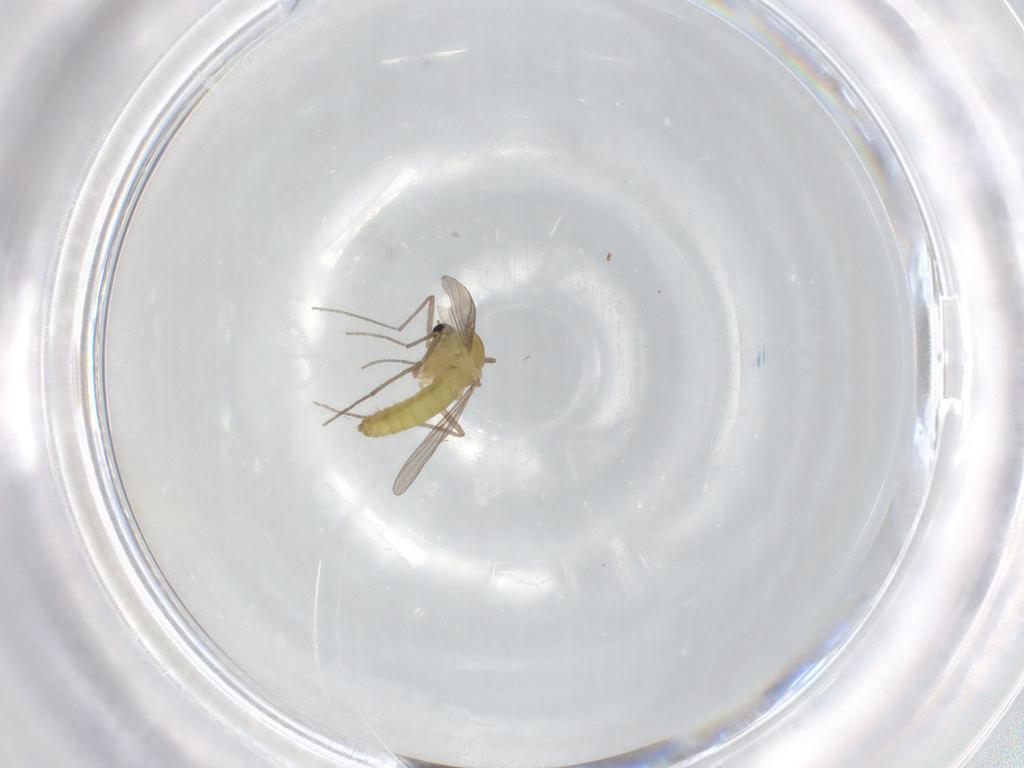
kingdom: Animalia
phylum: Arthropoda
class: Insecta
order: Diptera
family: Chironomidae
